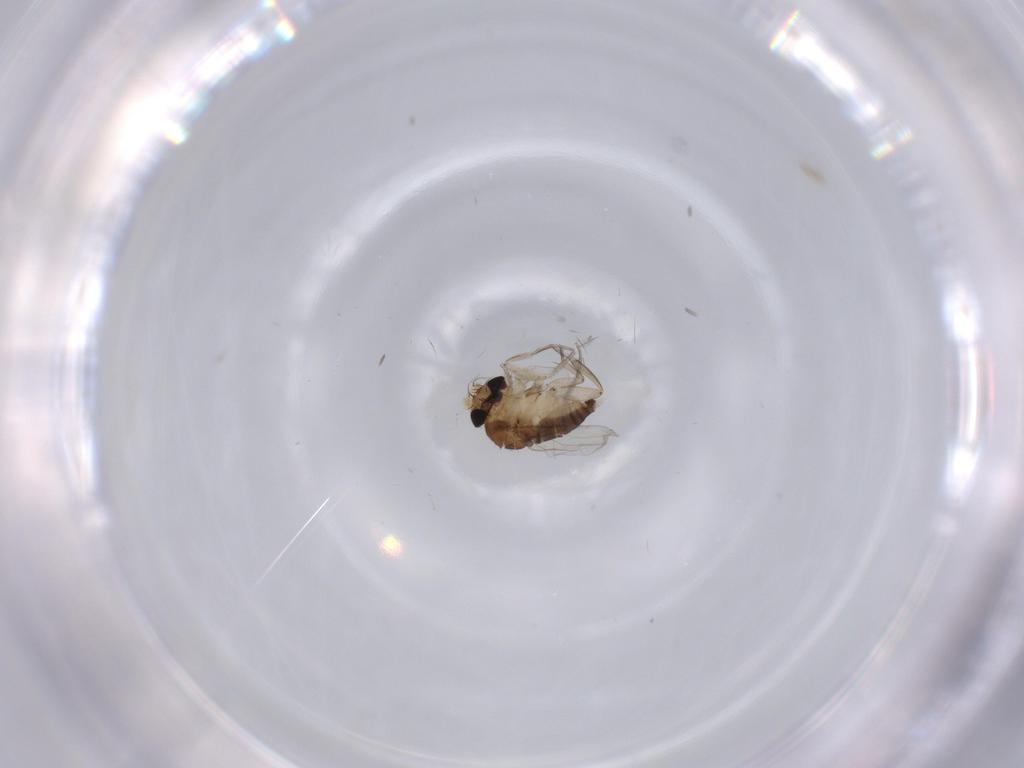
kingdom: Animalia
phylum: Arthropoda
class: Insecta
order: Diptera
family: Phoridae
